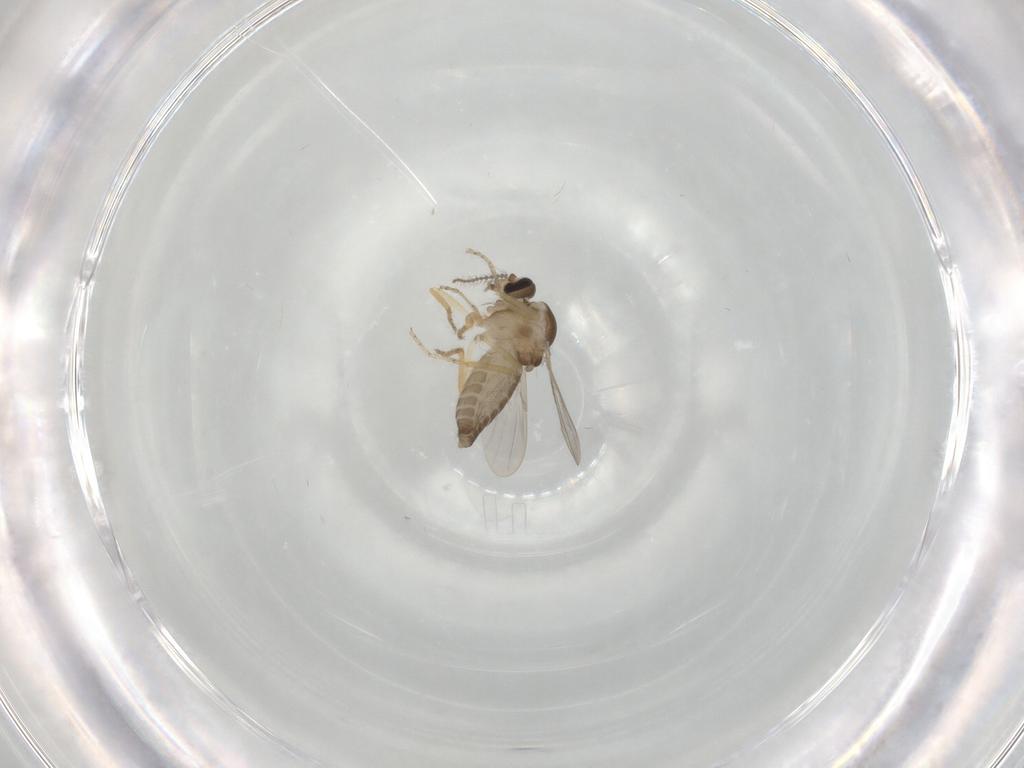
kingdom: Animalia
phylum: Arthropoda
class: Insecta
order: Diptera
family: Ceratopogonidae
